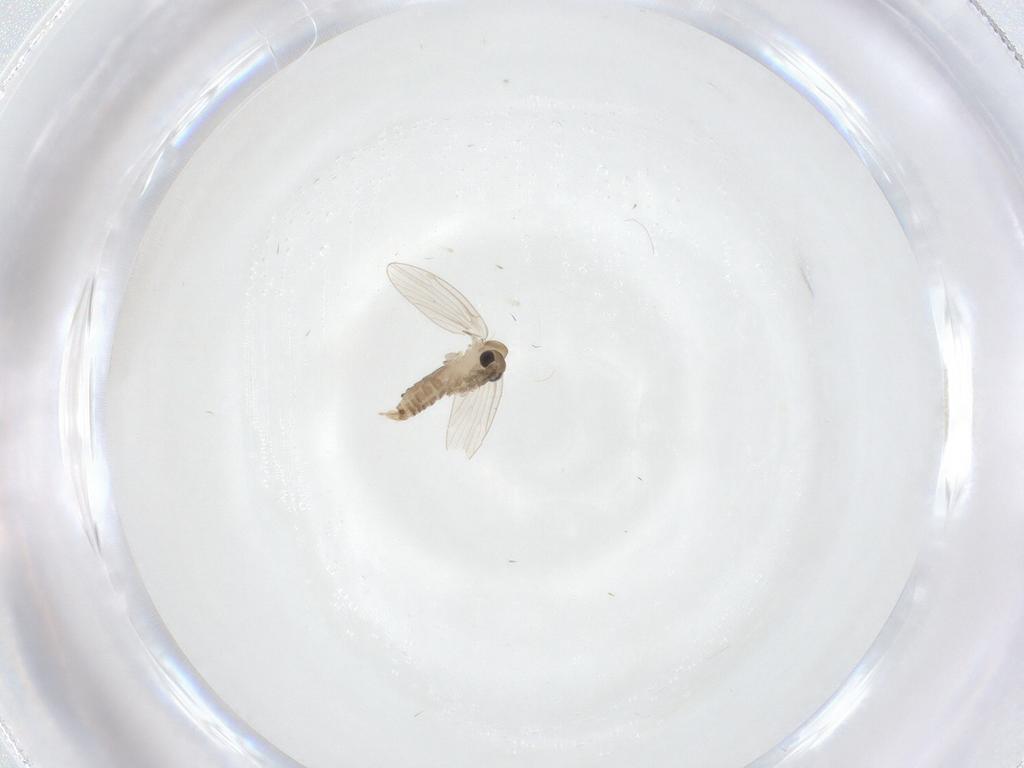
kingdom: Animalia
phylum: Arthropoda
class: Insecta
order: Diptera
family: Psychodidae
